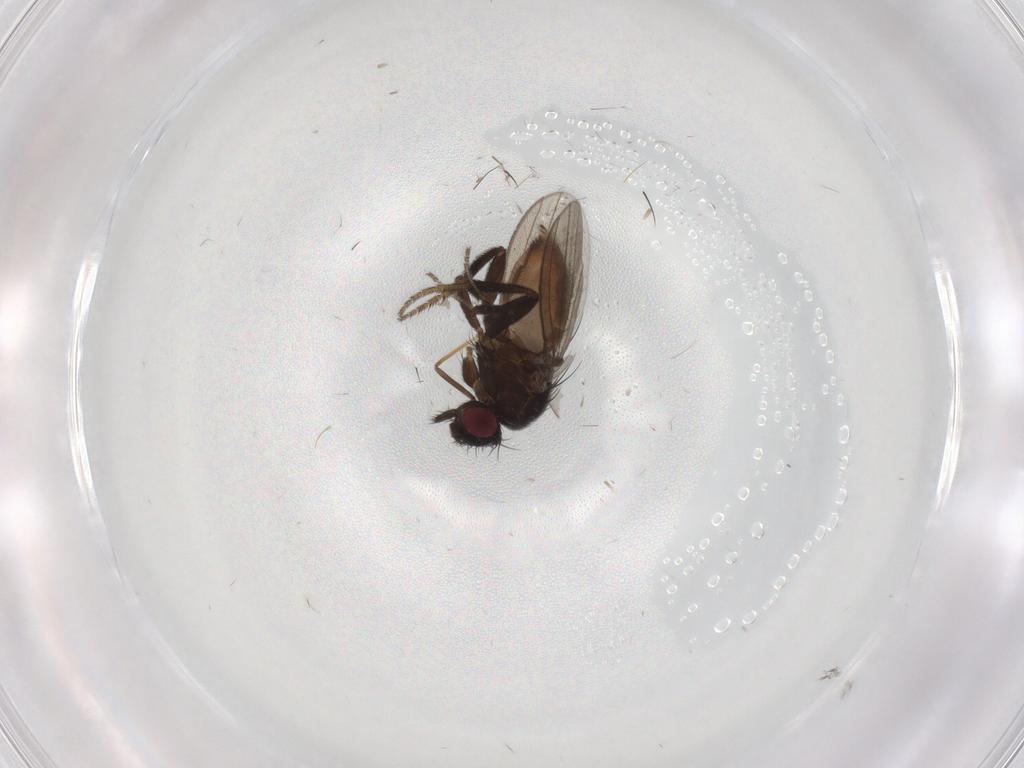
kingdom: Animalia
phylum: Arthropoda
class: Insecta
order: Diptera
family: Milichiidae
